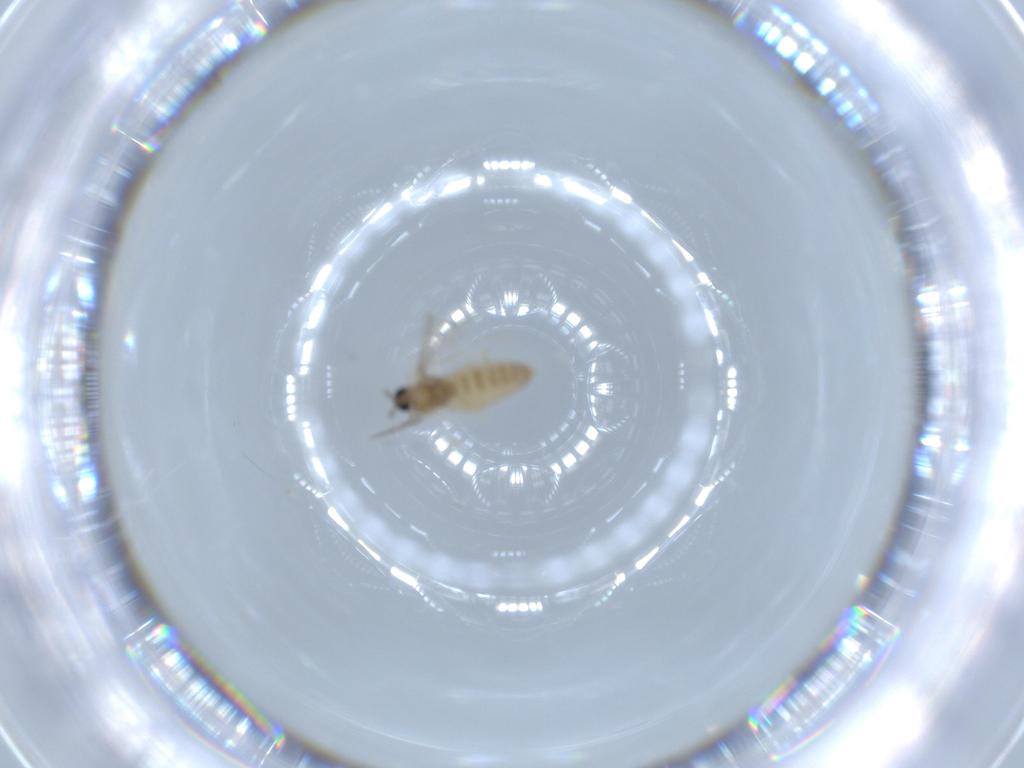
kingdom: Animalia
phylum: Arthropoda
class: Insecta
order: Diptera
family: Cecidomyiidae
